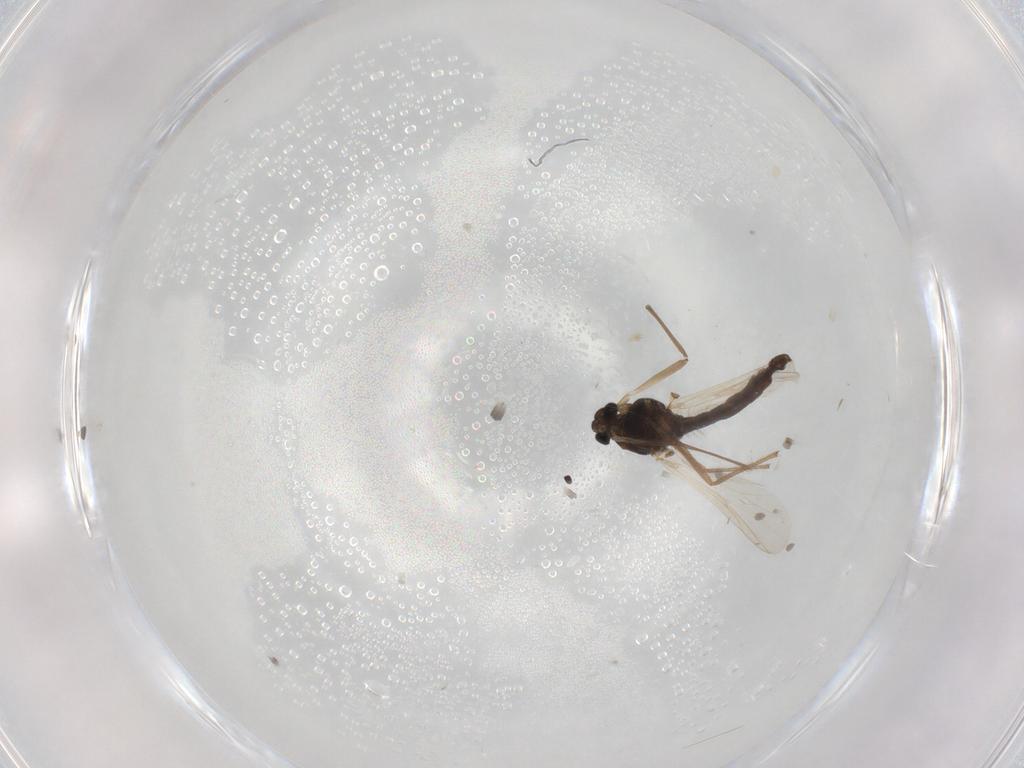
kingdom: Animalia
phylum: Arthropoda
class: Insecta
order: Diptera
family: Chironomidae
